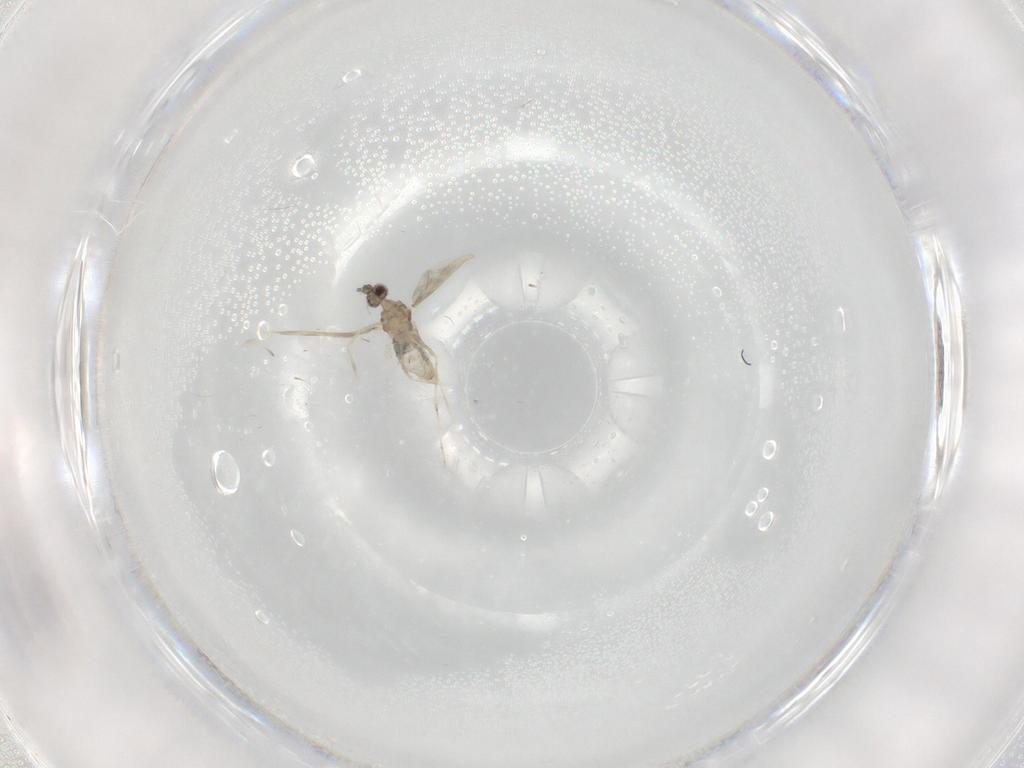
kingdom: Animalia
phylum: Arthropoda
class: Insecta
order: Diptera
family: Cecidomyiidae
